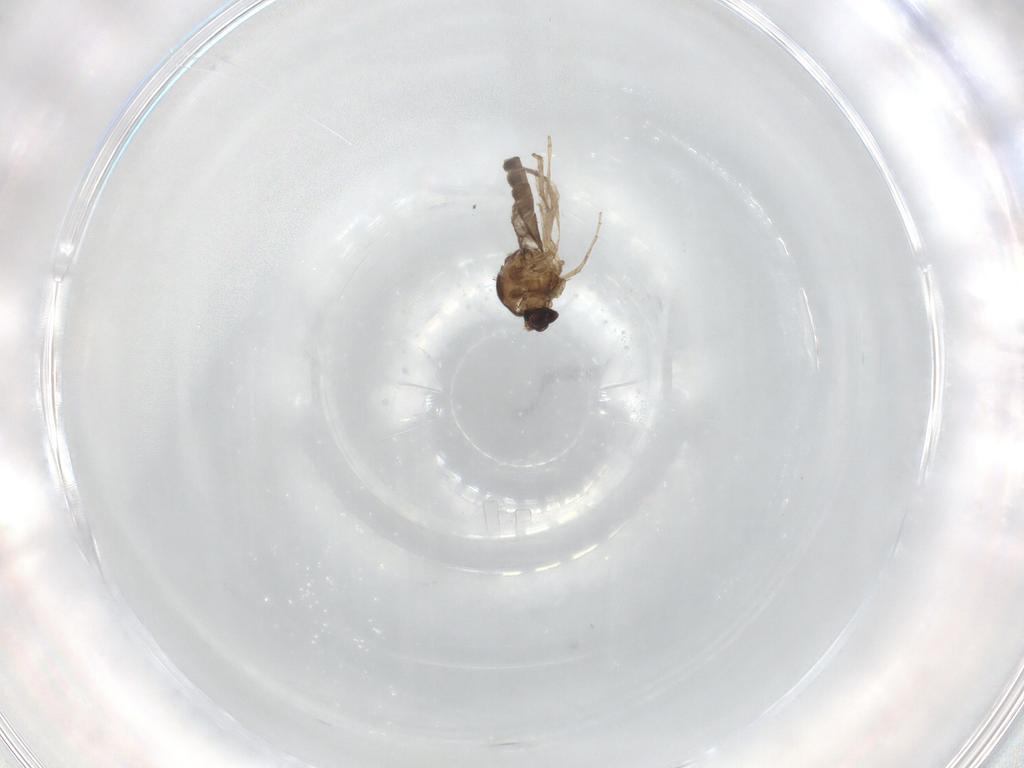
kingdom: Animalia
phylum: Arthropoda
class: Insecta
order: Diptera
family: Ceratopogonidae
